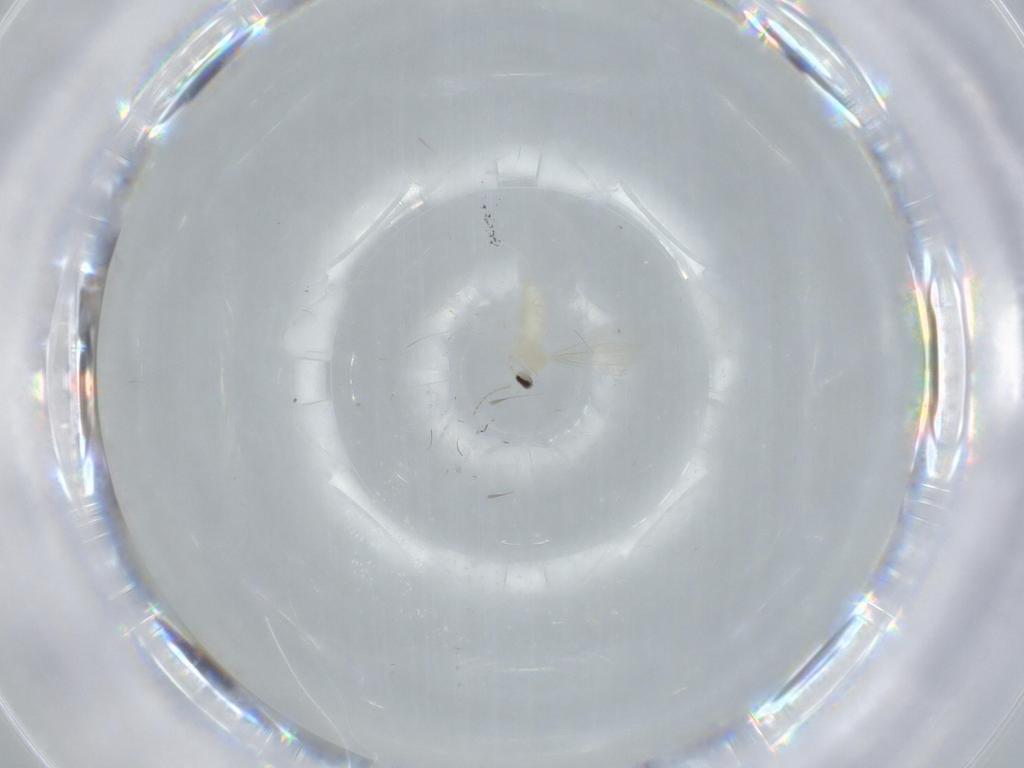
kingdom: Animalia
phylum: Arthropoda
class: Insecta
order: Diptera
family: Cecidomyiidae
